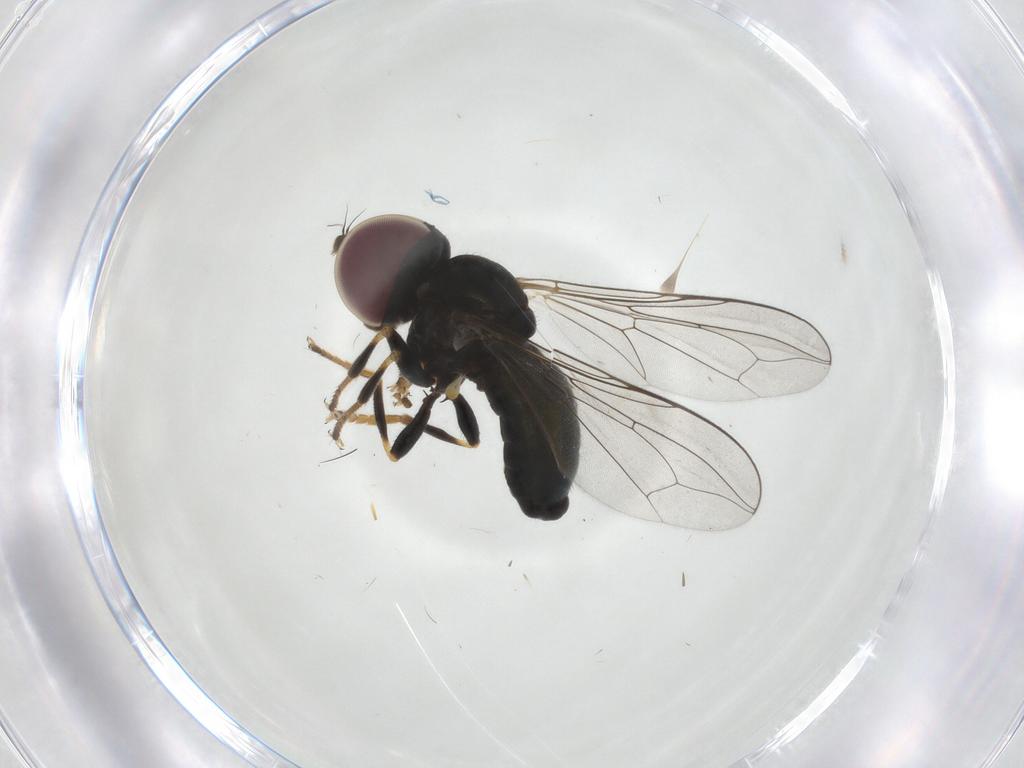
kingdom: Animalia
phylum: Arthropoda
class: Insecta
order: Diptera
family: Pipunculidae
